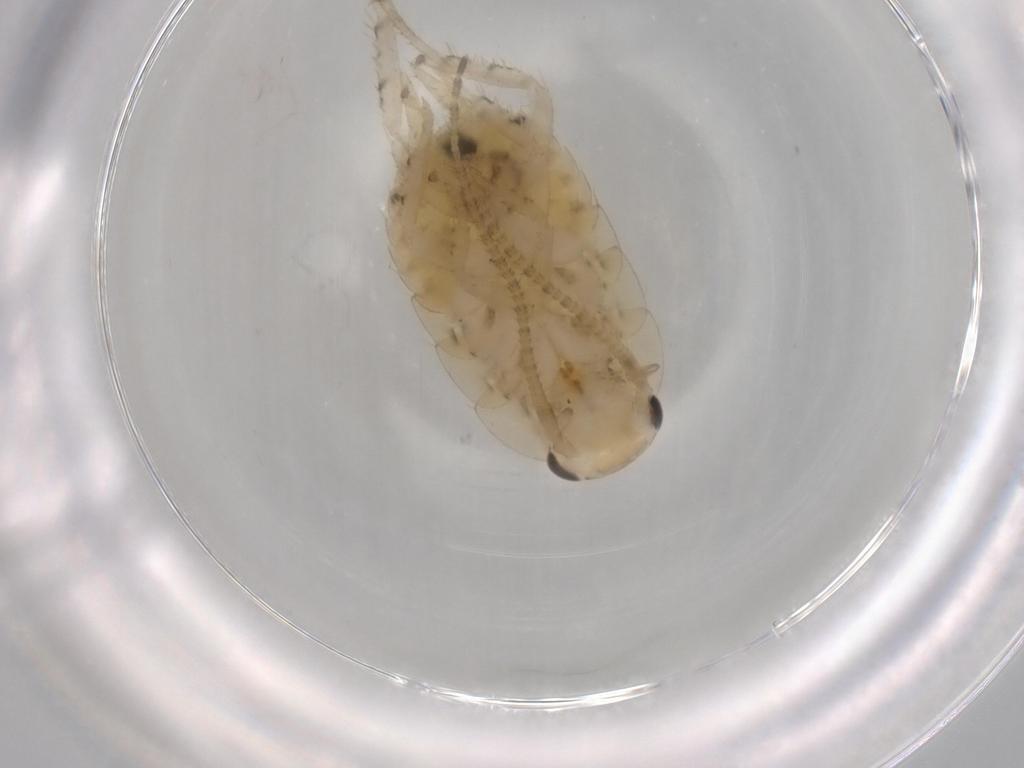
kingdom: Animalia
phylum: Arthropoda
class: Insecta
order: Blattodea
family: Ectobiidae
